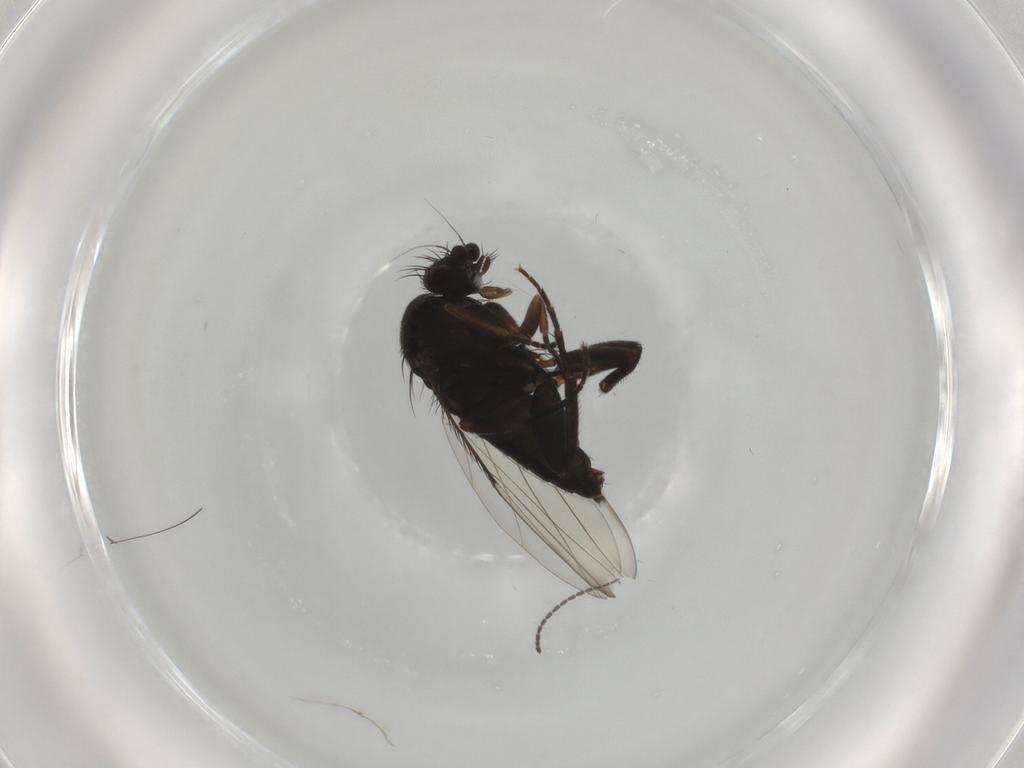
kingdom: Animalia
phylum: Arthropoda
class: Insecta
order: Diptera
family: Phoridae
